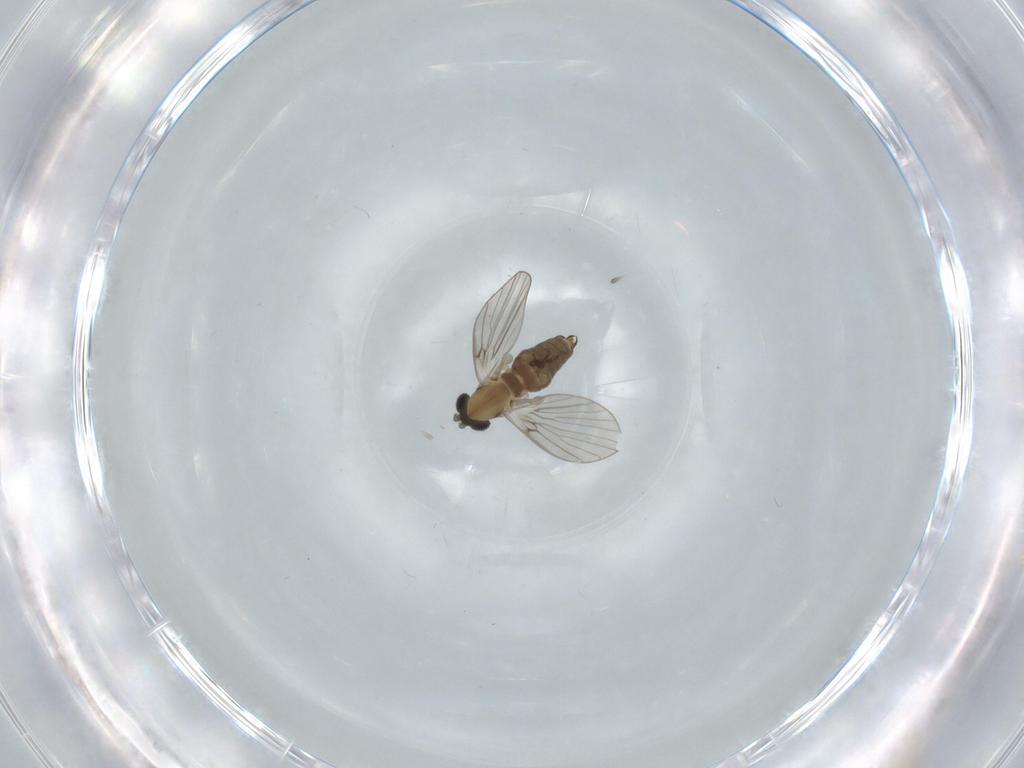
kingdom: Animalia
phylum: Arthropoda
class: Insecta
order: Diptera
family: Psychodidae
